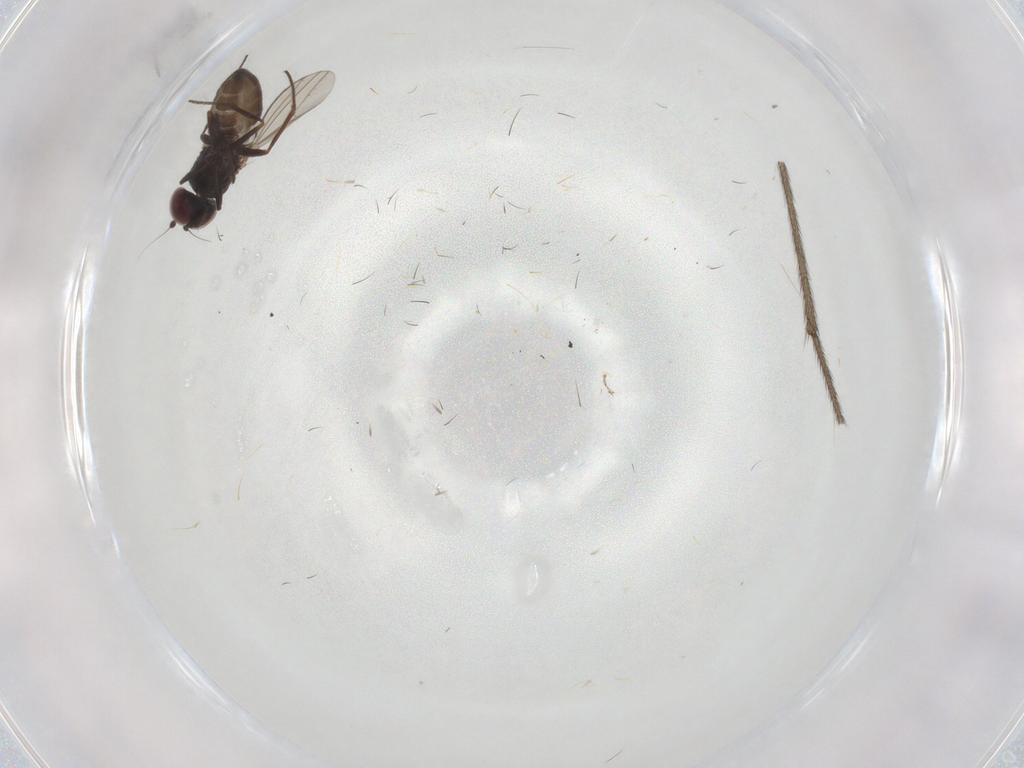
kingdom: Animalia
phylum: Arthropoda
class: Insecta
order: Diptera
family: Dolichopodidae
